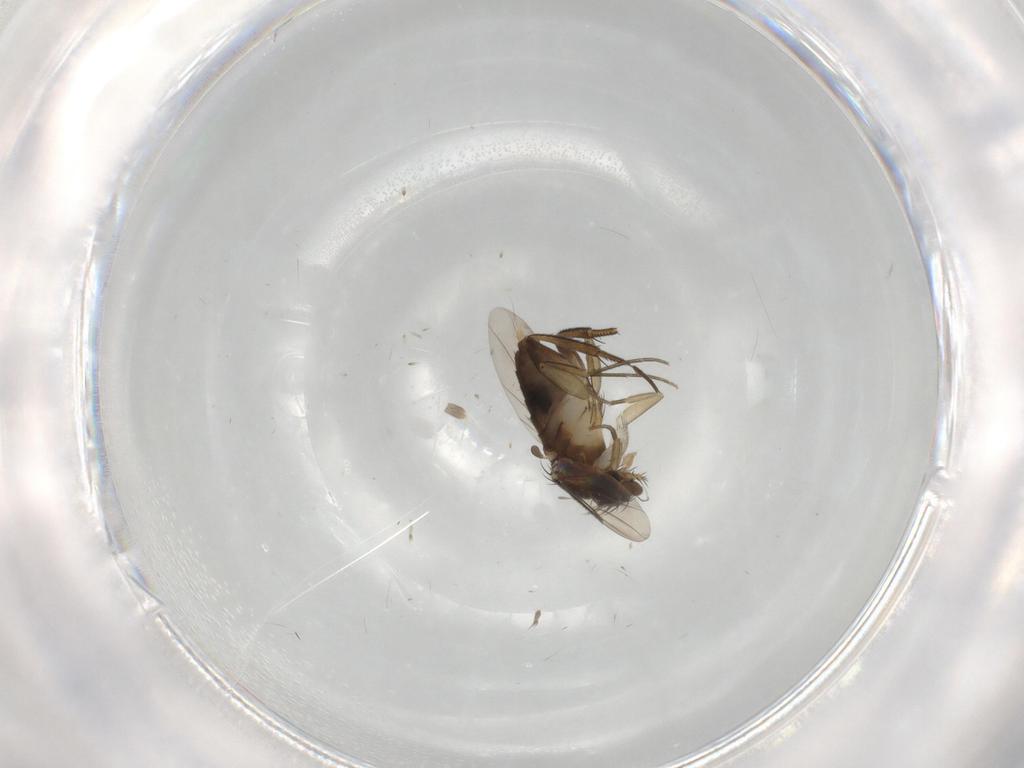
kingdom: Animalia
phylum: Arthropoda
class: Insecta
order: Diptera
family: Phoridae
